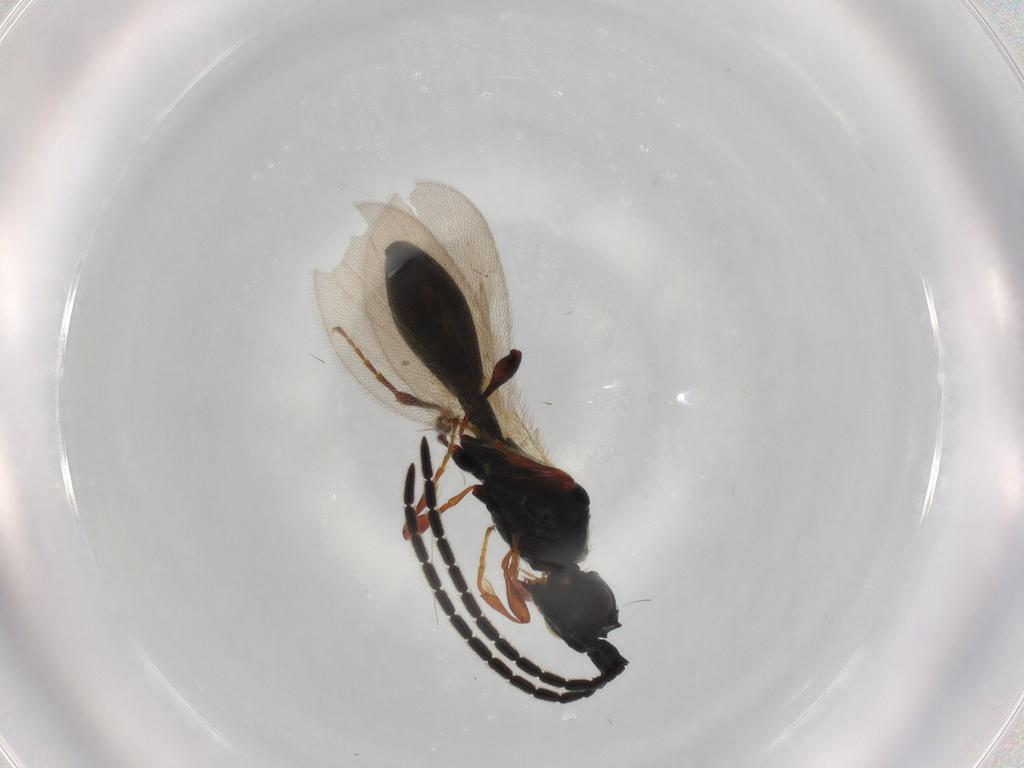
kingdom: Animalia
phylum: Arthropoda
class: Insecta
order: Hymenoptera
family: Diapriidae
